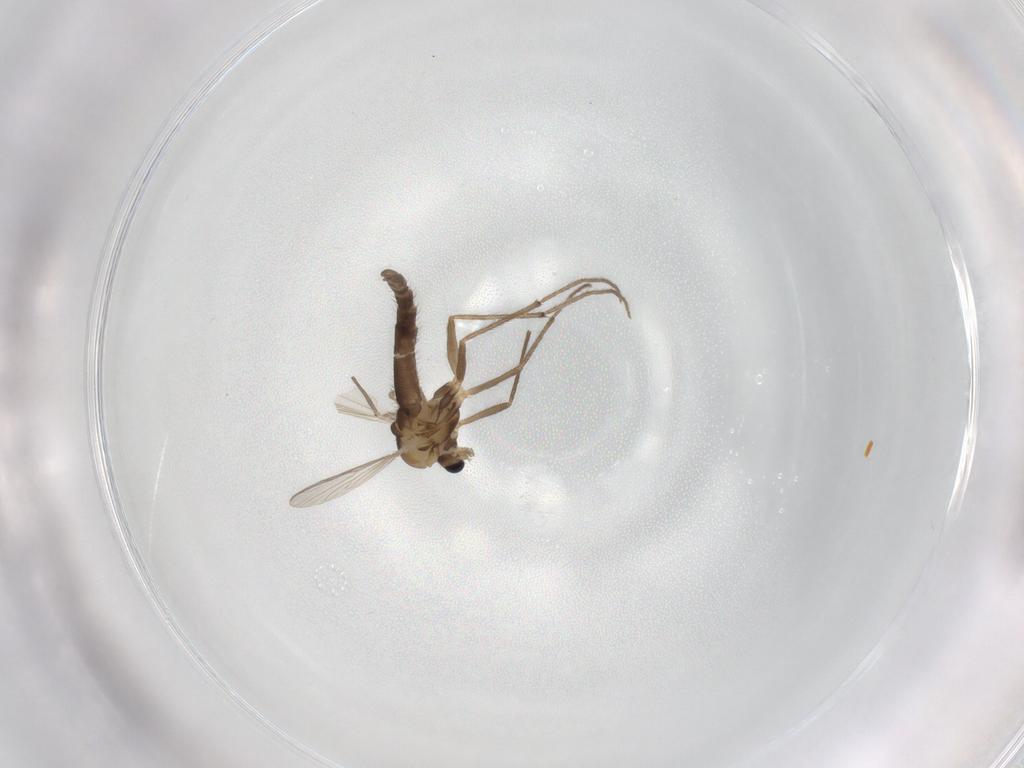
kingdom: Animalia
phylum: Arthropoda
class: Insecta
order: Diptera
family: Chironomidae
